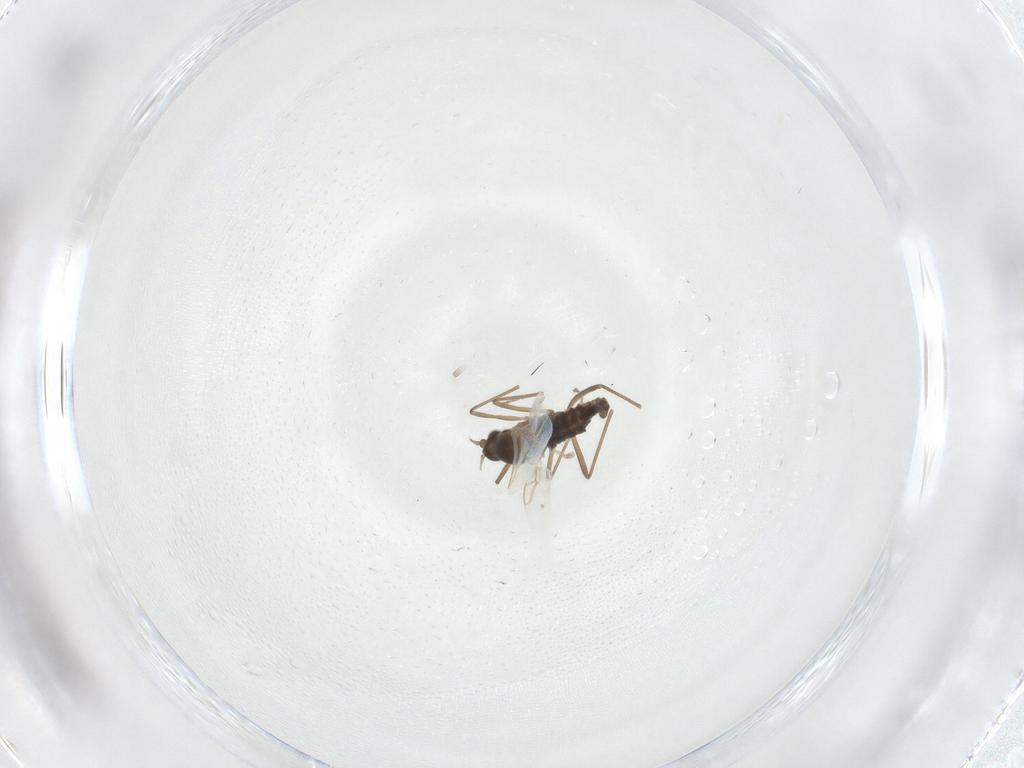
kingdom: Animalia
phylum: Arthropoda
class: Insecta
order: Diptera
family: Cecidomyiidae
